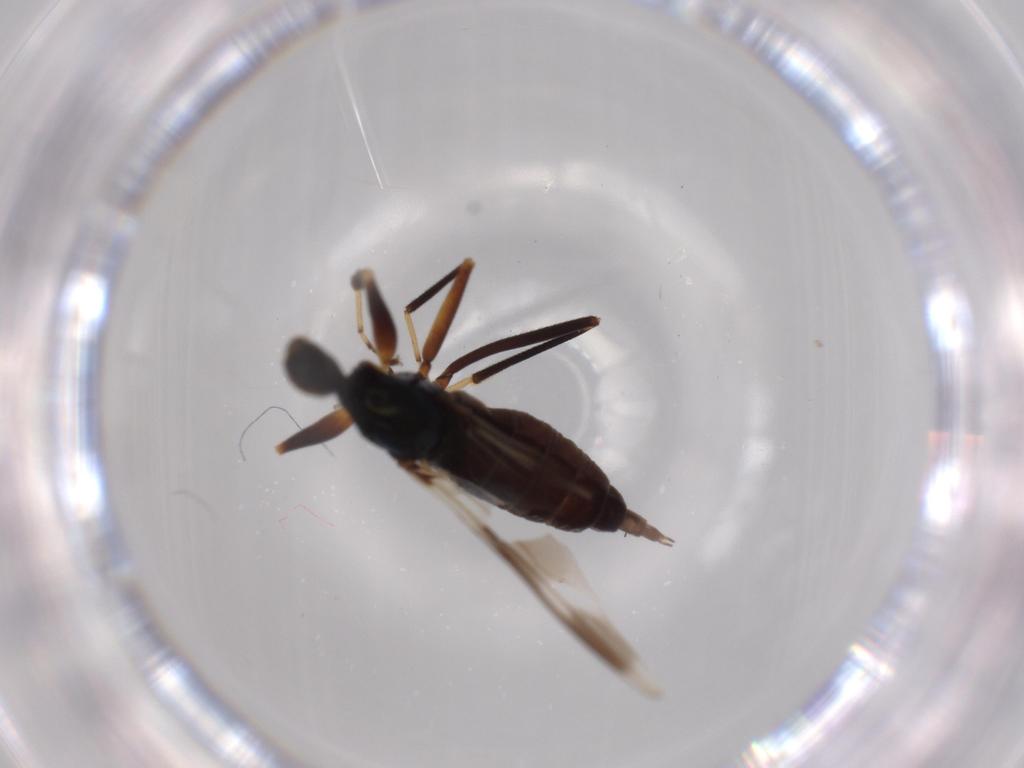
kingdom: Animalia
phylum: Arthropoda
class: Insecta
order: Diptera
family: Hybotidae
